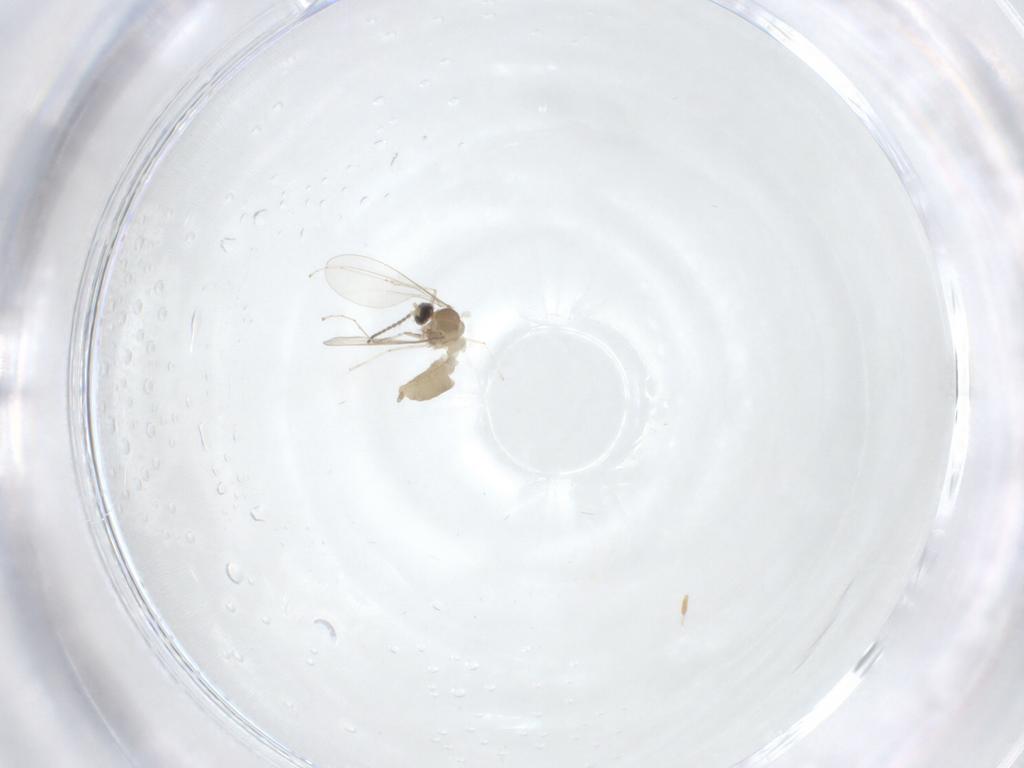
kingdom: Animalia
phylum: Arthropoda
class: Insecta
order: Diptera
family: Cecidomyiidae
